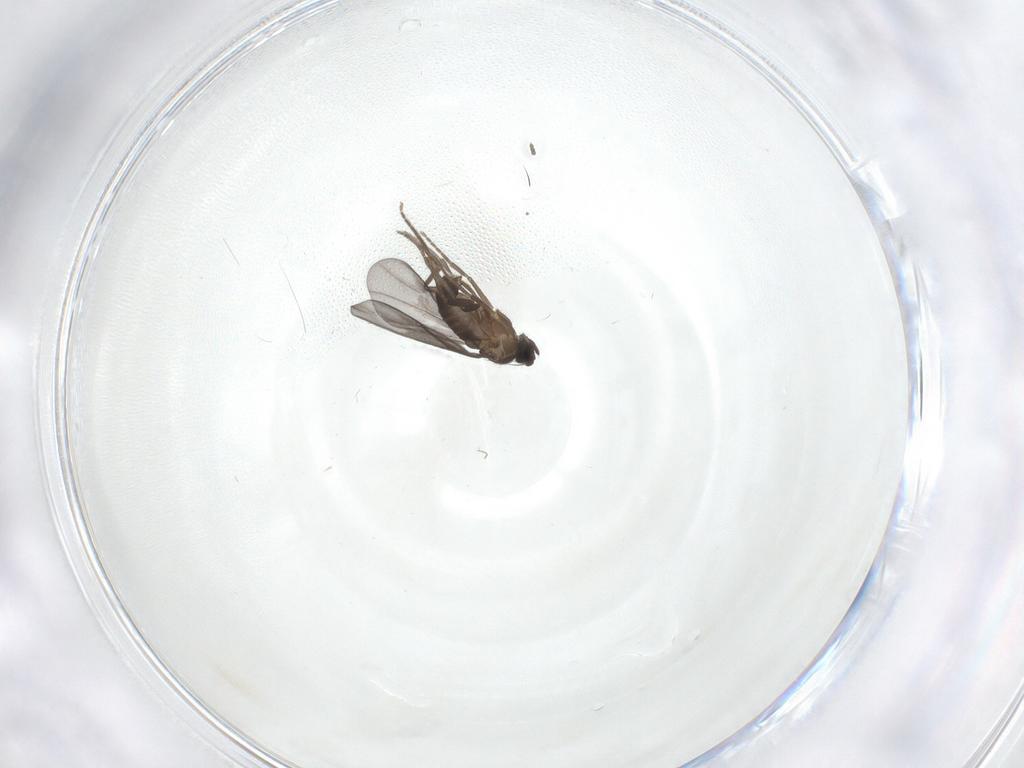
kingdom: Animalia
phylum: Arthropoda
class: Insecta
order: Diptera
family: Phoridae
